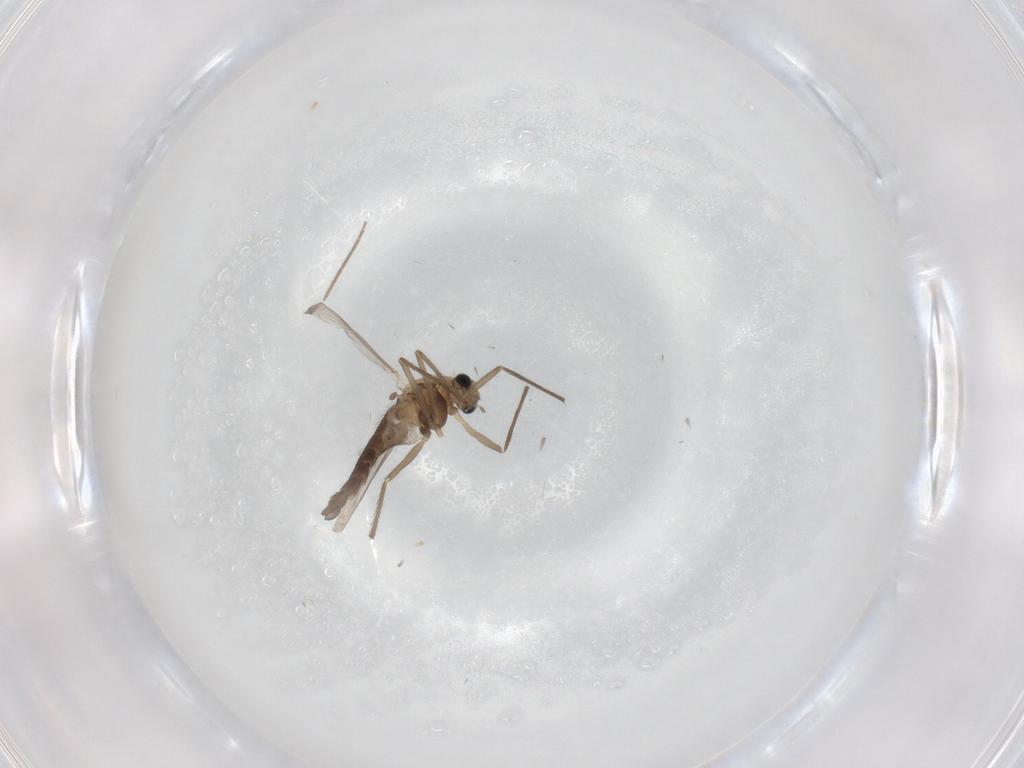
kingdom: Animalia
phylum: Arthropoda
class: Insecta
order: Diptera
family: Chironomidae
